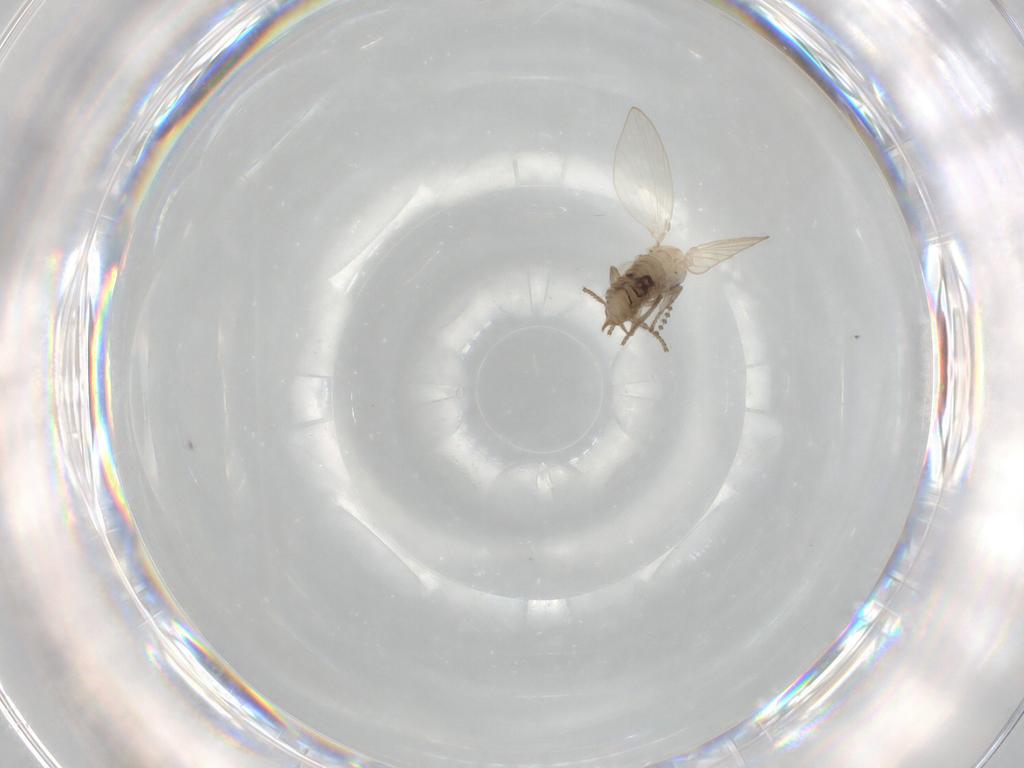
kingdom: Animalia
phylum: Arthropoda
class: Insecta
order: Diptera
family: Psychodidae
